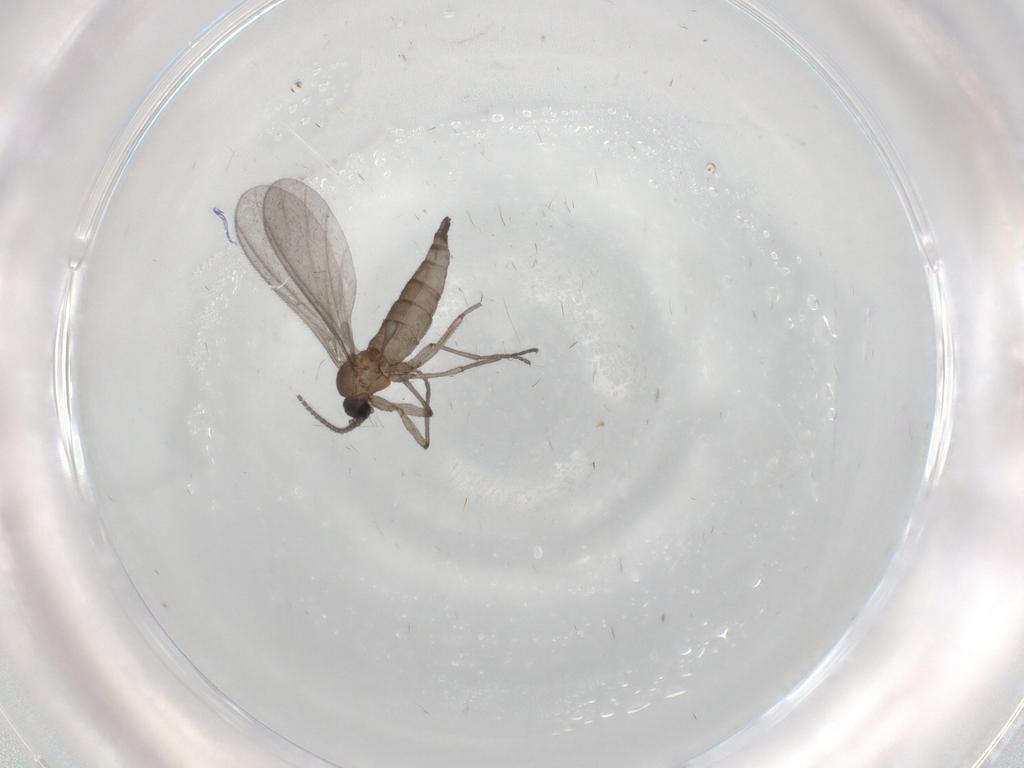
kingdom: Animalia
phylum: Arthropoda
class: Insecta
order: Diptera
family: Sciaridae
